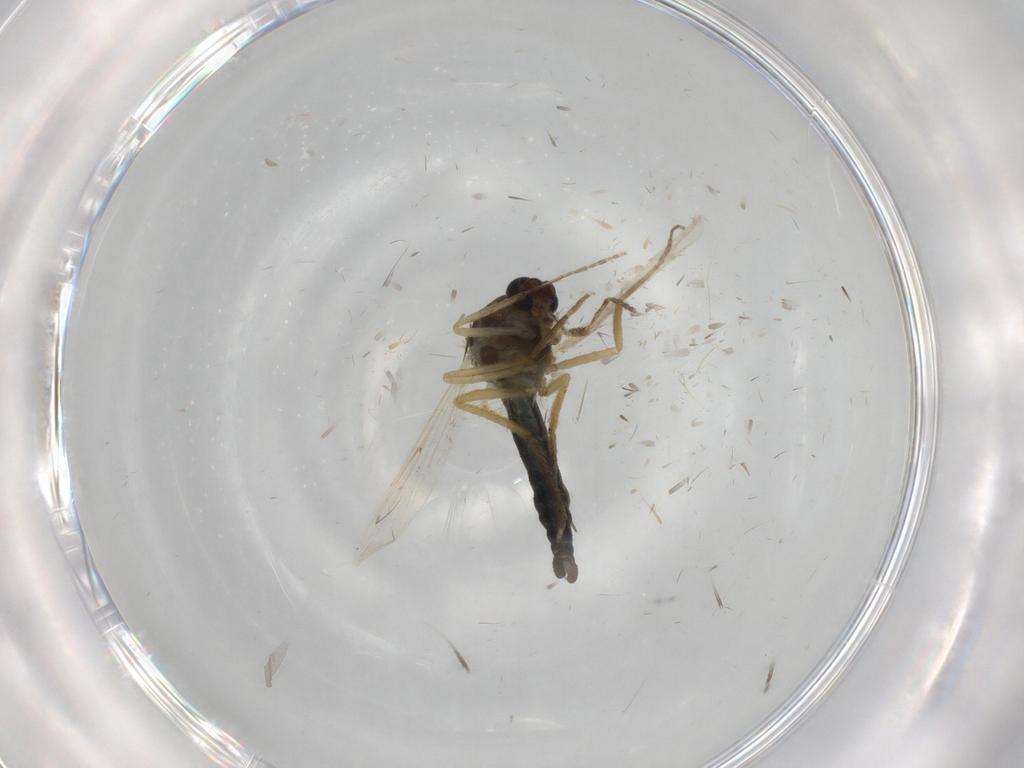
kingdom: Animalia
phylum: Arthropoda
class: Insecta
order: Diptera
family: Ceratopogonidae
